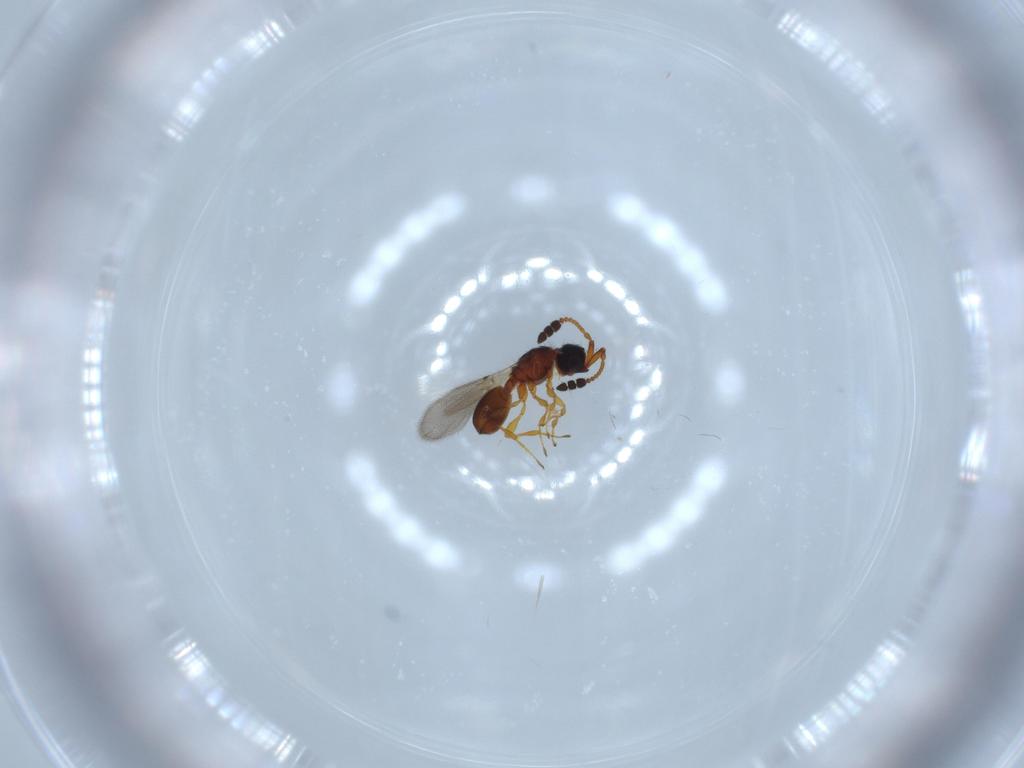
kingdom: Animalia
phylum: Arthropoda
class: Insecta
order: Hymenoptera
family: Diapriidae
